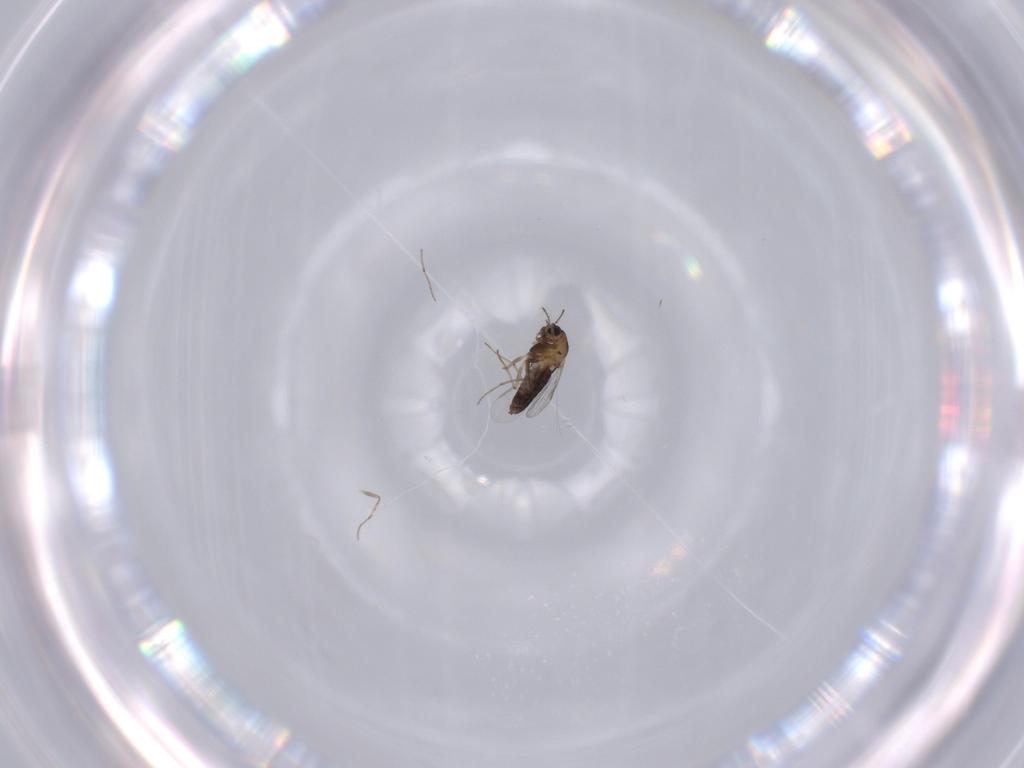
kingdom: Animalia
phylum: Arthropoda
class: Insecta
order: Diptera
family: Chironomidae
